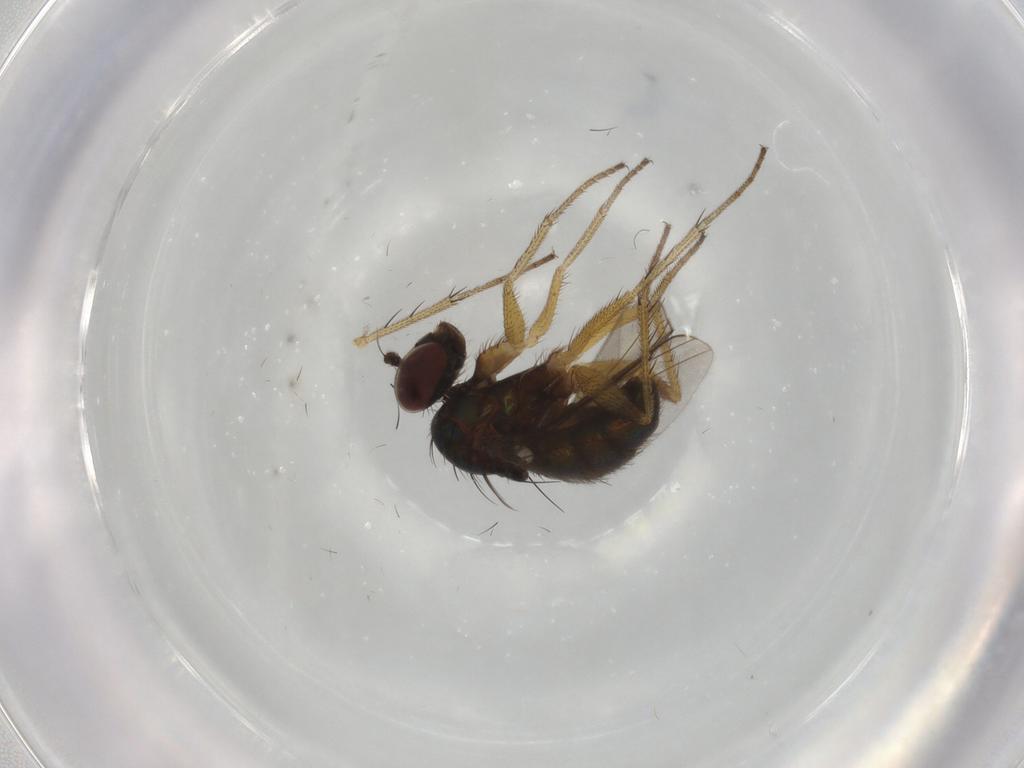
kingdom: Animalia
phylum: Arthropoda
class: Insecta
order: Diptera
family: Dolichopodidae
